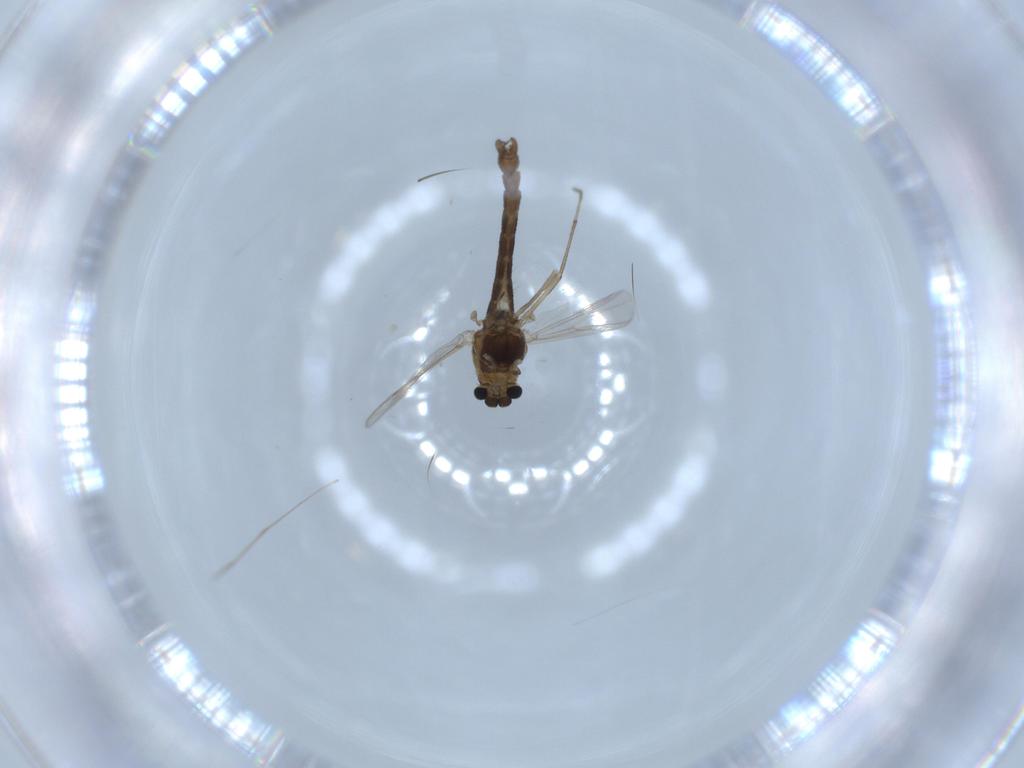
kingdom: Animalia
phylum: Arthropoda
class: Insecta
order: Diptera
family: Chironomidae
